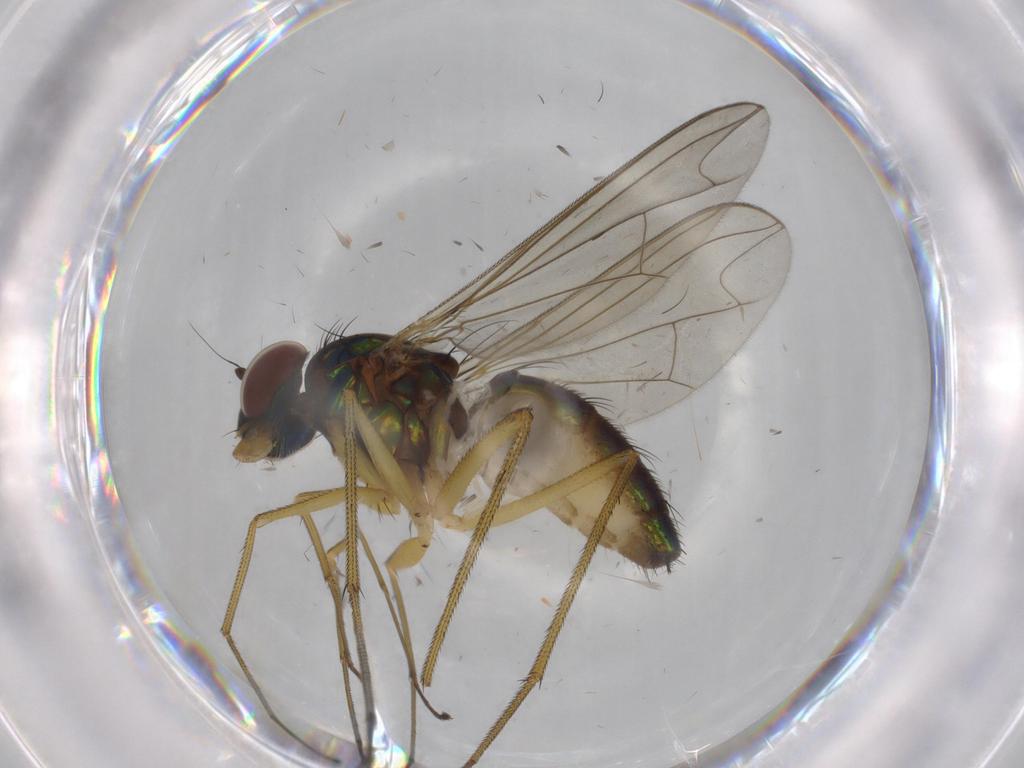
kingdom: Animalia
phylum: Arthropoda
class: Insecta
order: Diptera
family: Dolichopodidae
